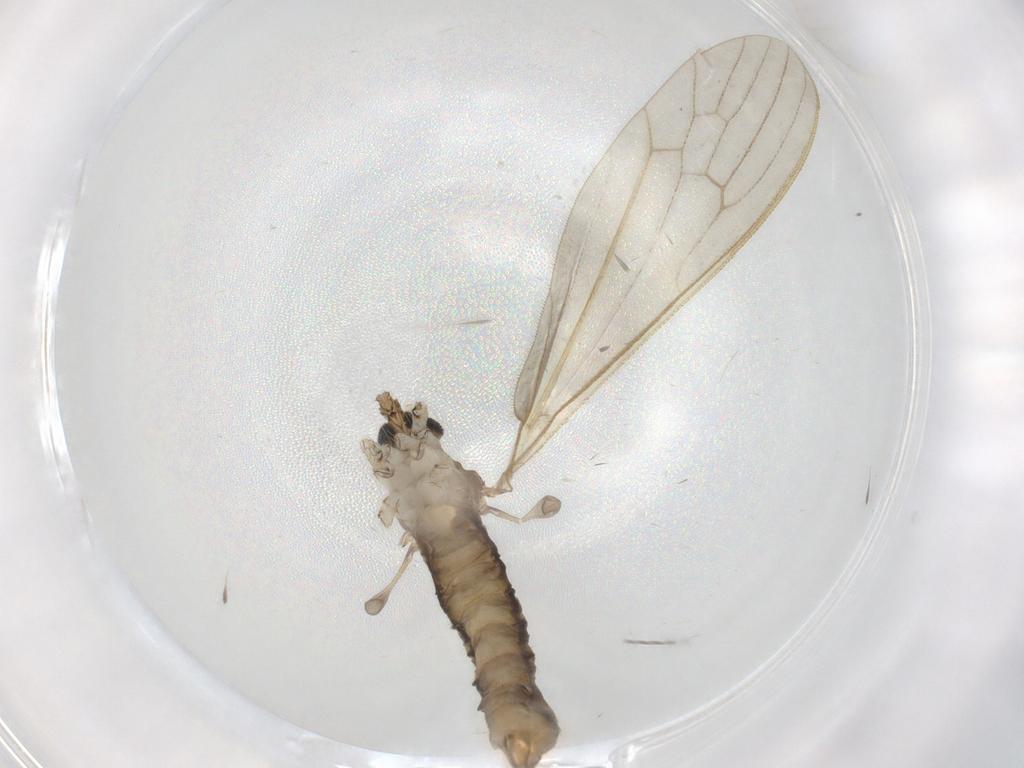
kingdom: Animalia
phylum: Arthropoda
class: Insecta
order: Diptera
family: Limoniidae
